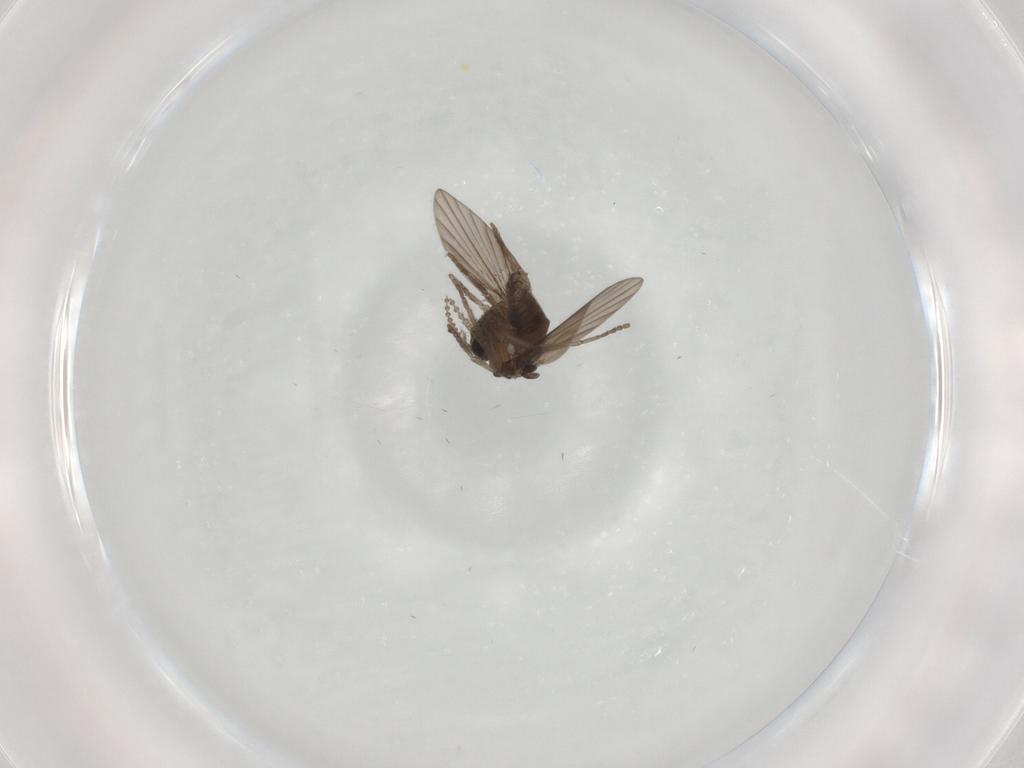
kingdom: Animalia
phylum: Arthropoda
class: Insecta
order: Diptera
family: Psychodidae
